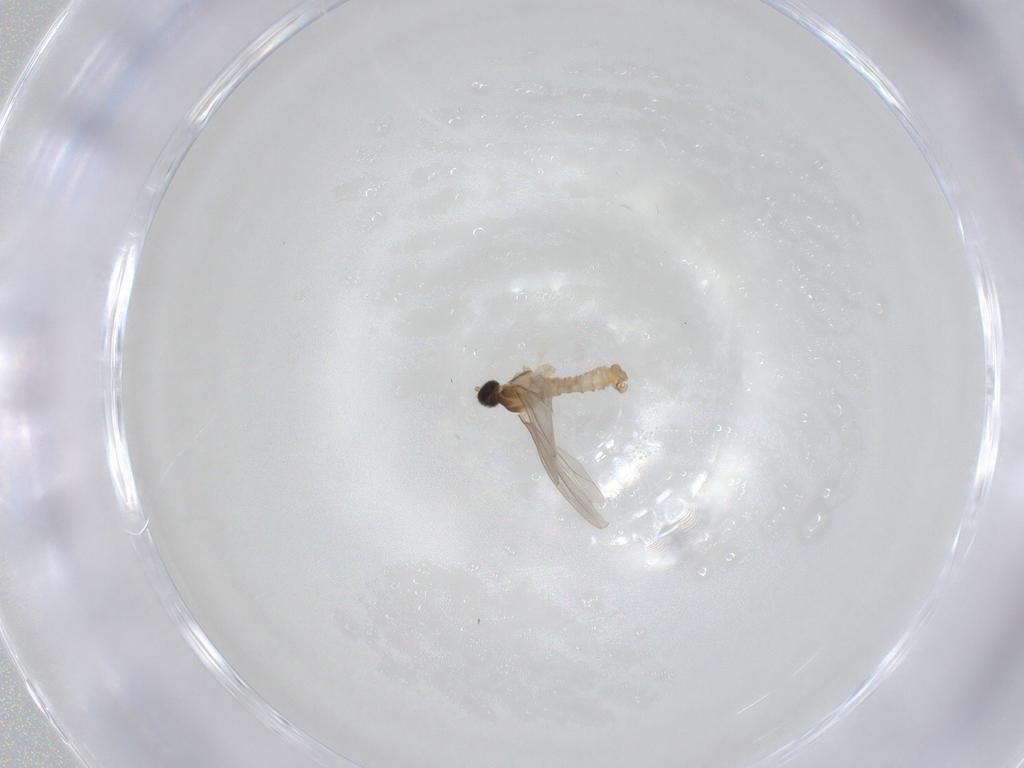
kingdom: Animalia
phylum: Arthropoda
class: Insecta
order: Diptera
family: Cecidomyiidae
